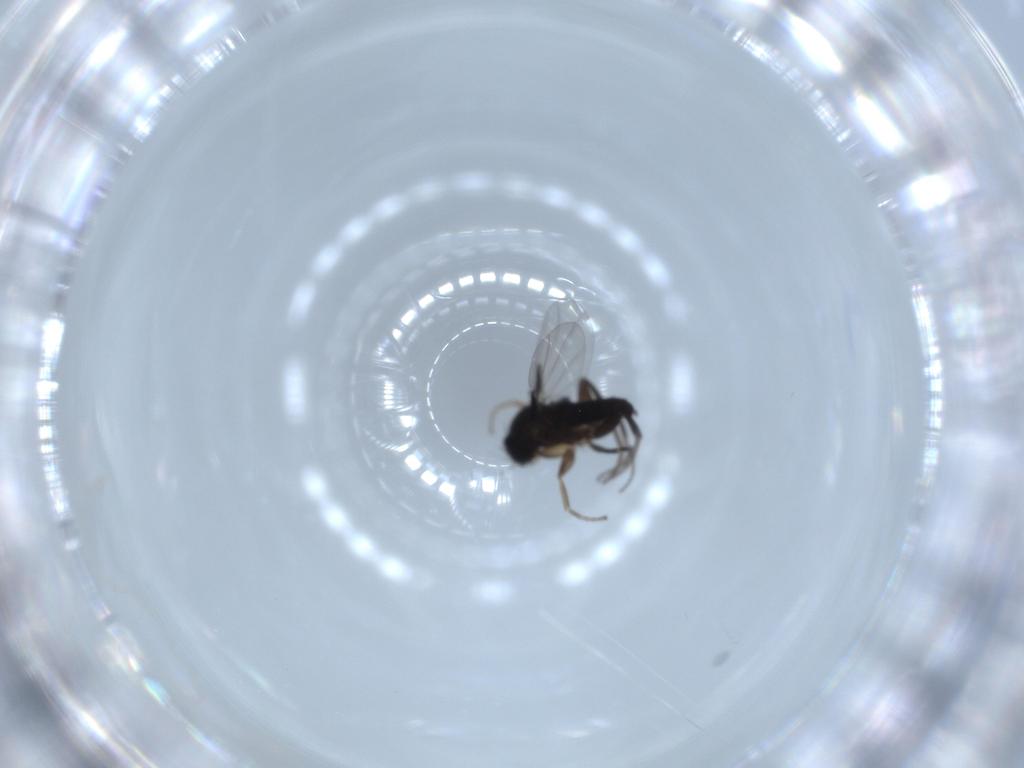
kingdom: Animalia
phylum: Arthropoda
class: Insecta
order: Diptera
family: Phoridae
